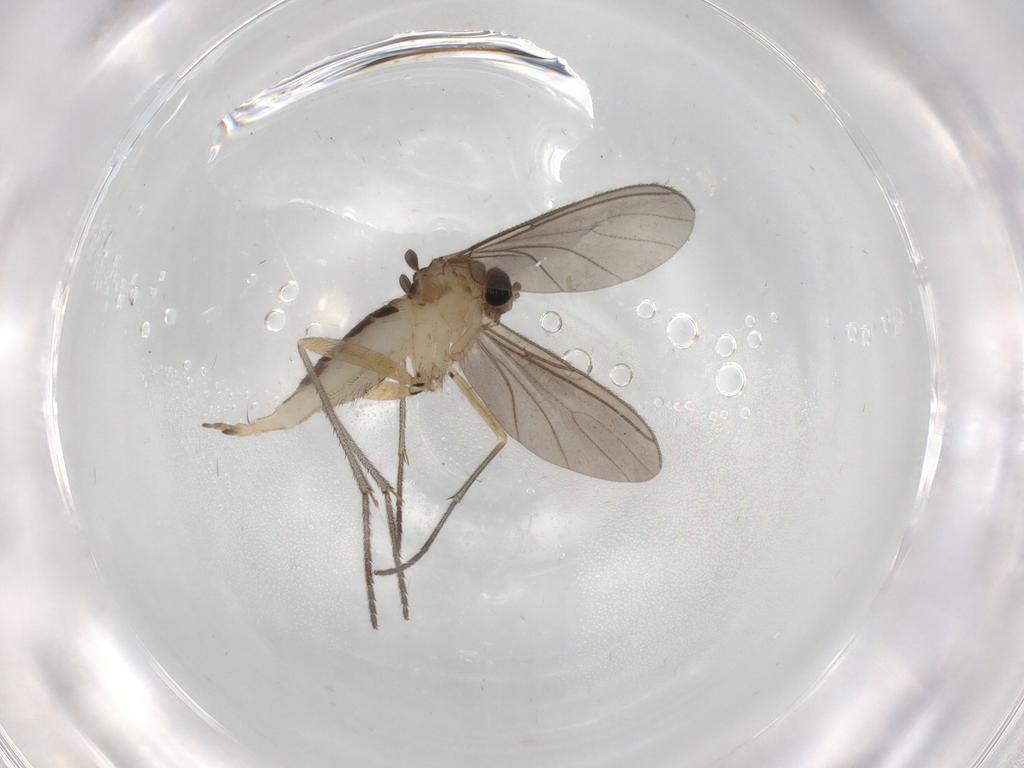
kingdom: Animalia
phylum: Arthropoda
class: Insecta
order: Diptera
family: Sciaridae
